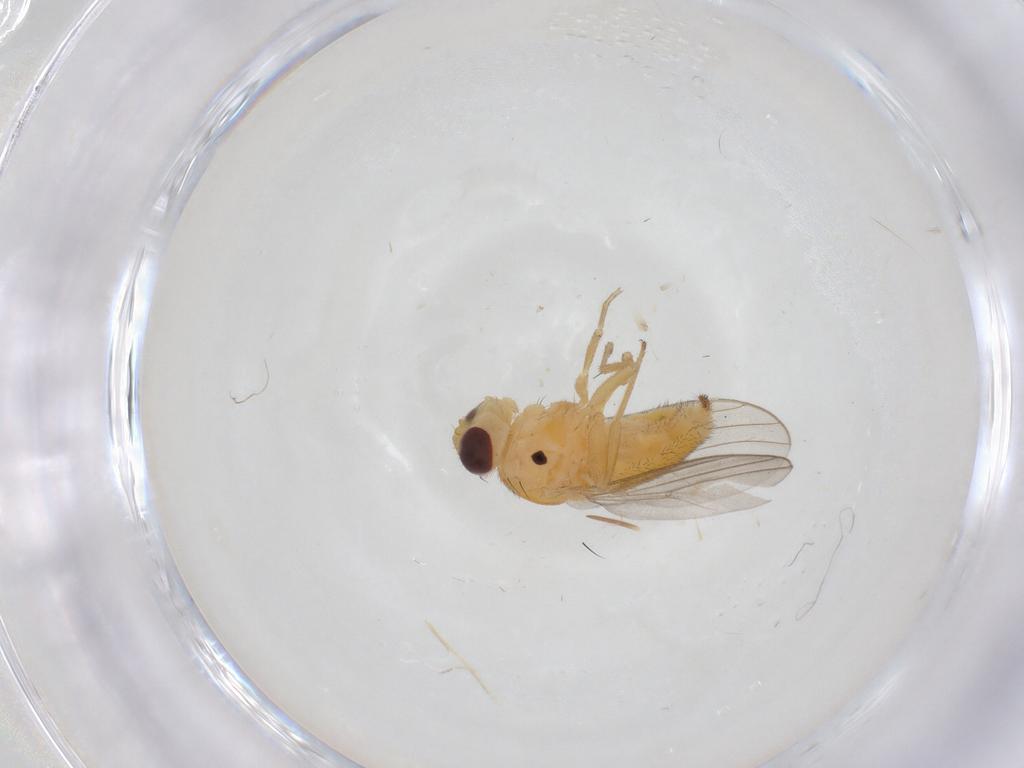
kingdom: Animalia
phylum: Arthropoda
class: Insecta
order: Diptera
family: Chloropidae
